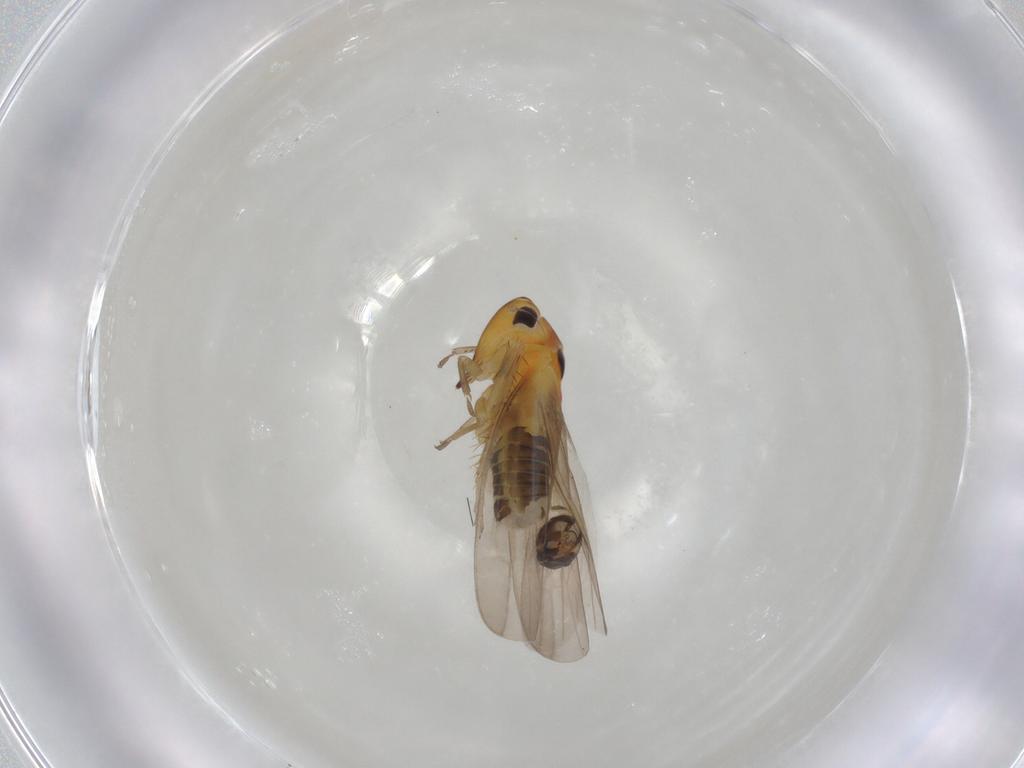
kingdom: Animalia
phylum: Arthropoda
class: Insecta
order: Hemiptera
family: Cicadellidae
